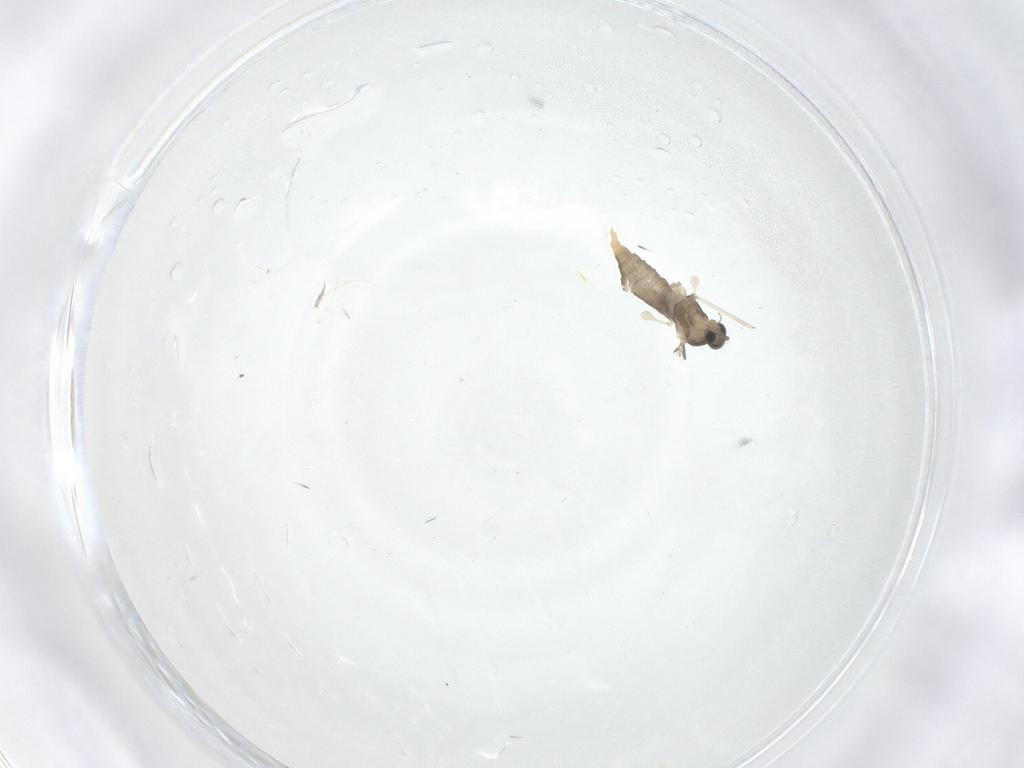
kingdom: Animalia
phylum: Arthropoda
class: Insecta
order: Diptera
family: Cecidomyiidae
